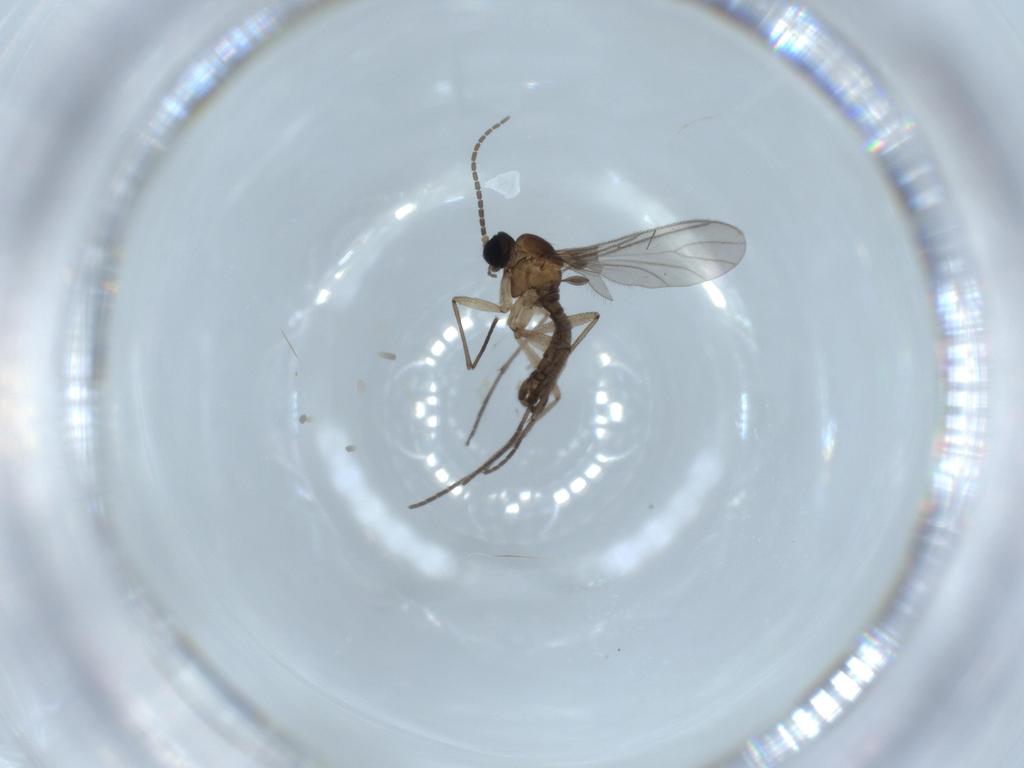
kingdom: Animalia
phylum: Arthropoda
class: Insecta
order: Diptera
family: Sciaridae
